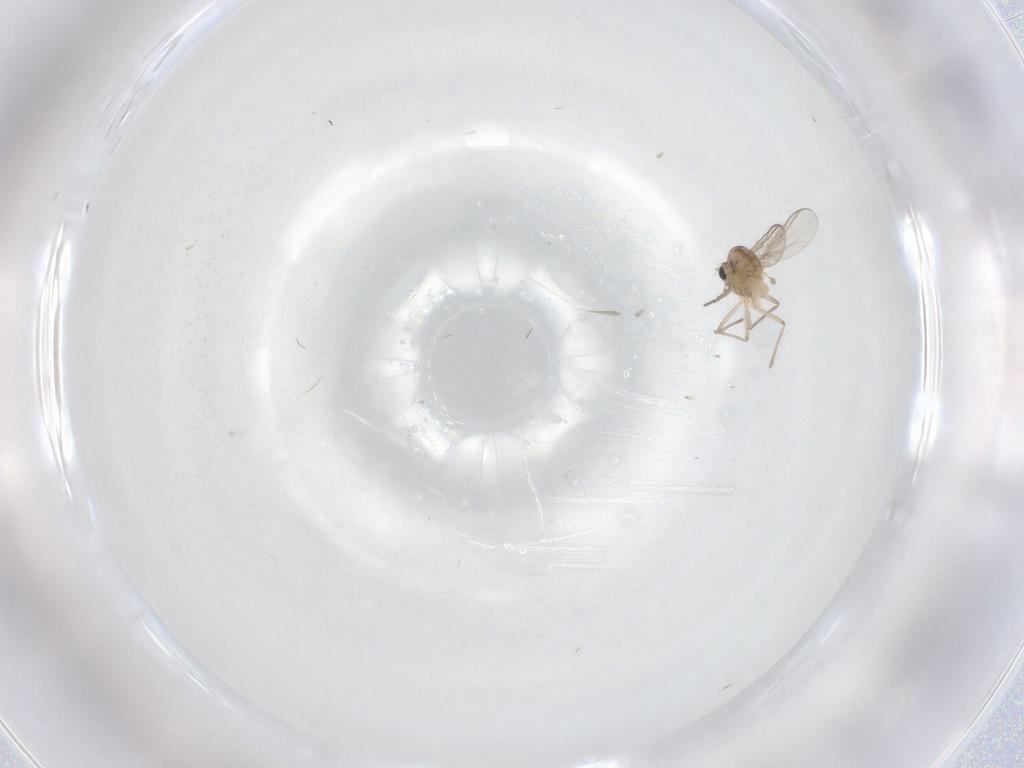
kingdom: Animalia
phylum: Arthropoda
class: Insecta
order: Diptera
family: Chironomidae
